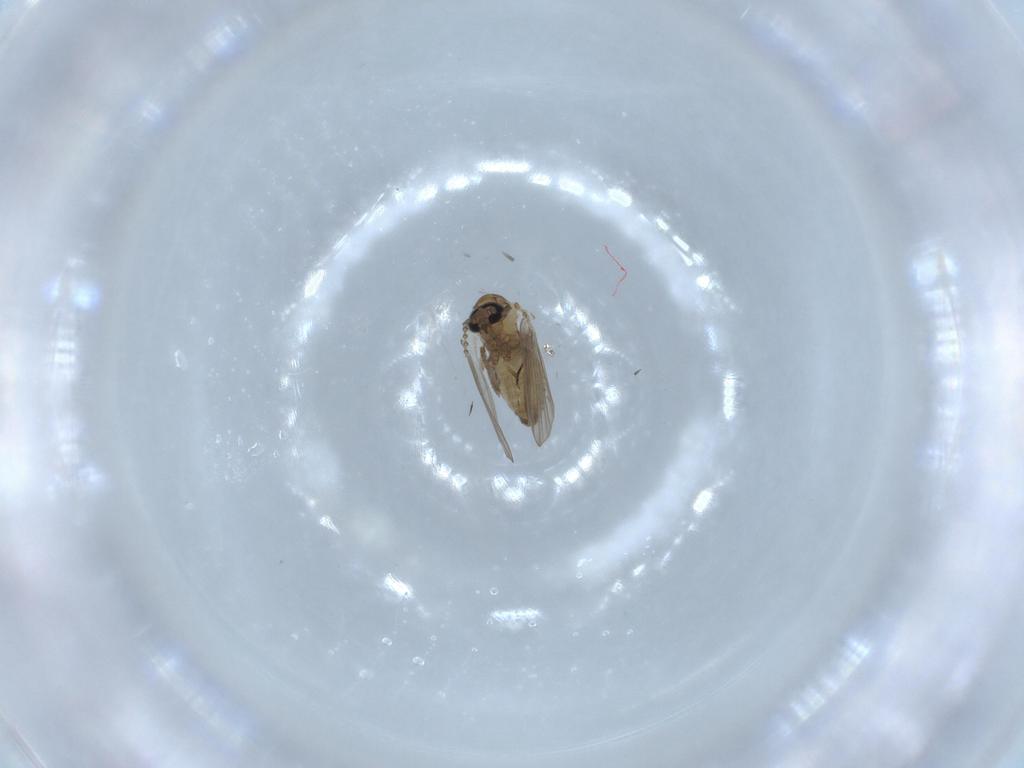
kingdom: Animalia
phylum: Arthropoda
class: Insecta
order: Diptera
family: Psychodidae
